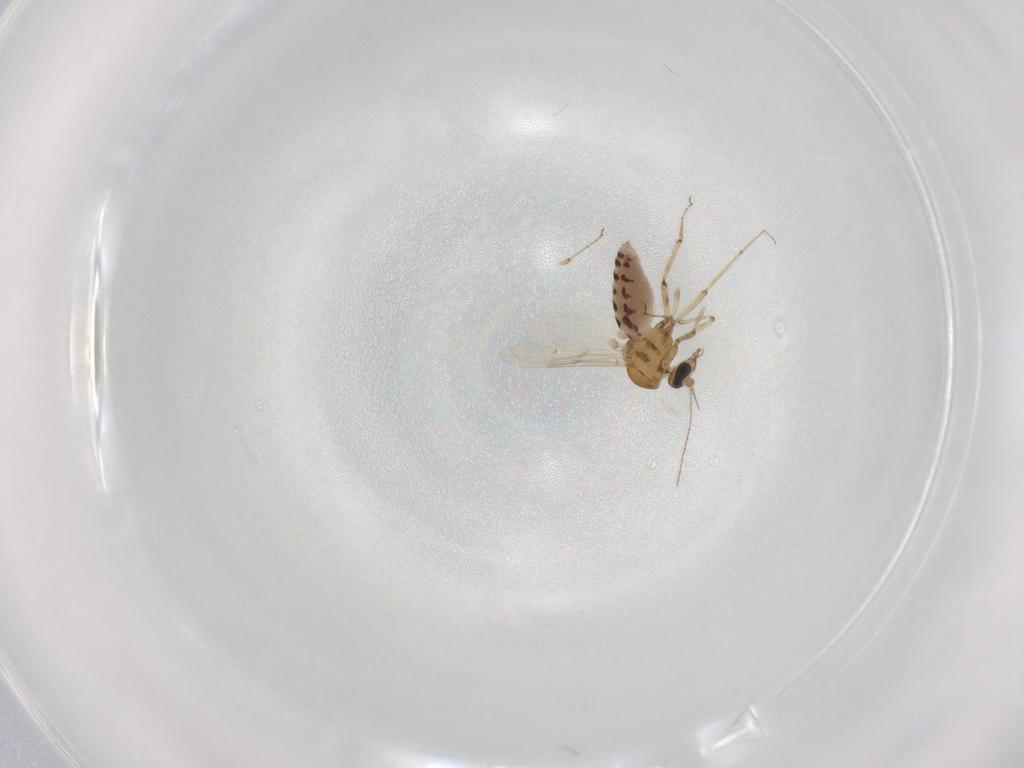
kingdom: Animalia
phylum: Arthropoda
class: Insecta
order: Diptera
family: Ceratopogonidae
